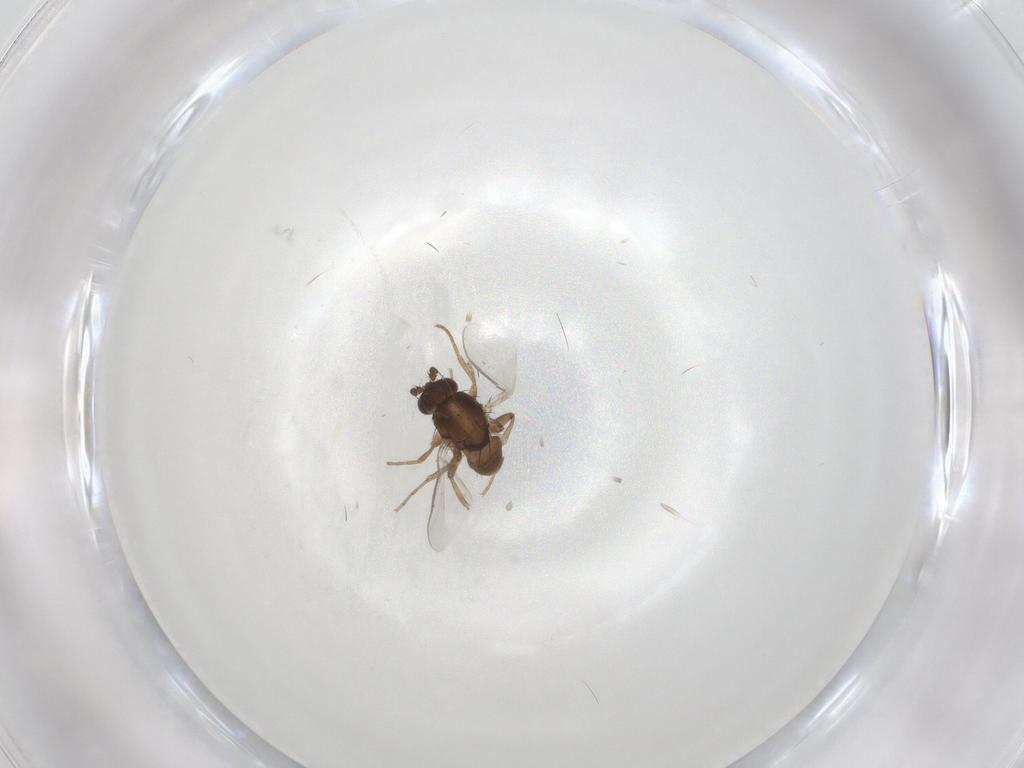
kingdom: Animalia
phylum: Arthropoda
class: Insecta
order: Diptera
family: Sphaeroceridae
